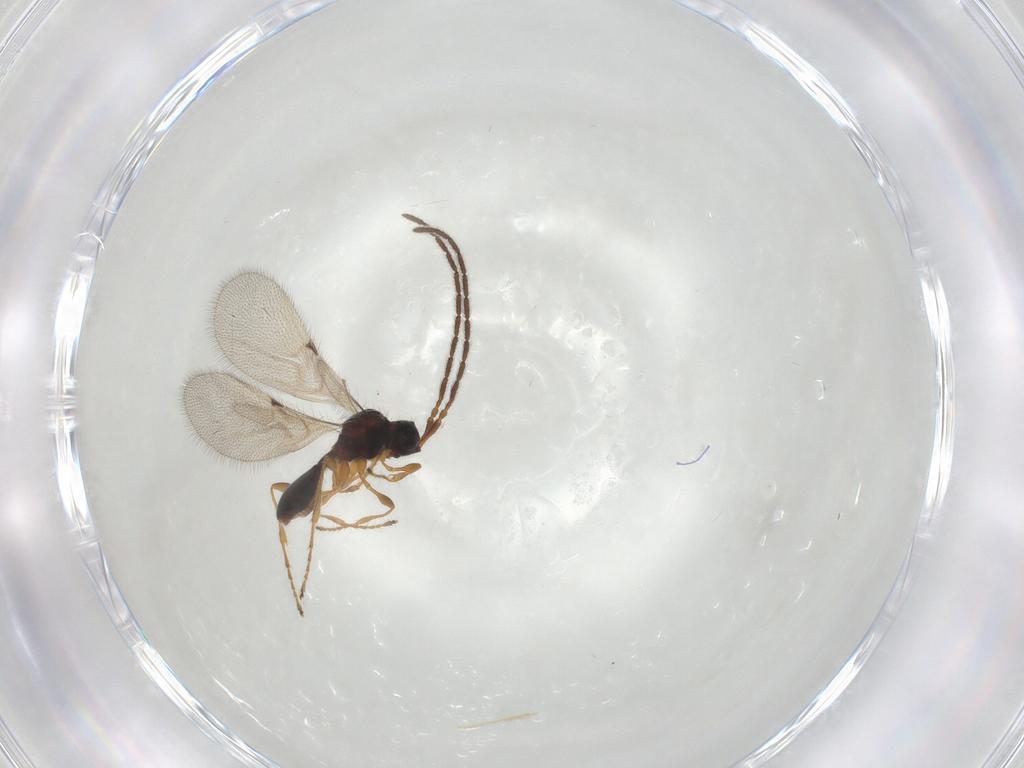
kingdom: Animalia
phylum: Arthropoda
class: Insecta
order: Hymenoptera
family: Diapriidae
